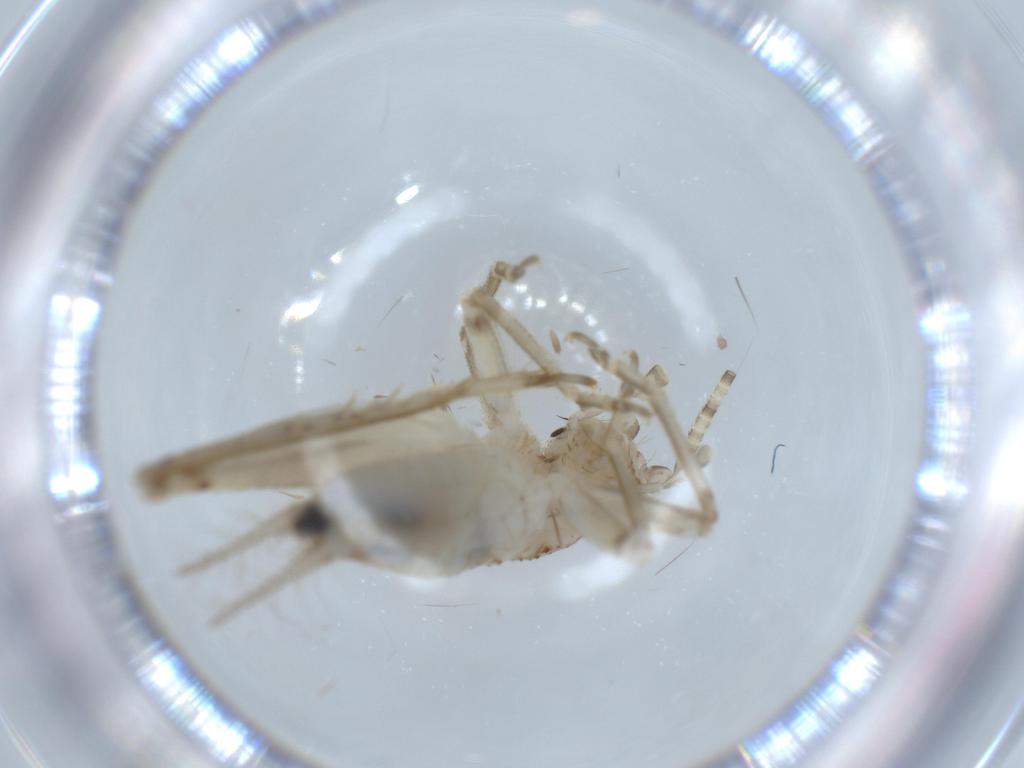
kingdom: Animalia
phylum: Arthropoda
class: Insecta
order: Orthoptera
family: Trigonidiidae
